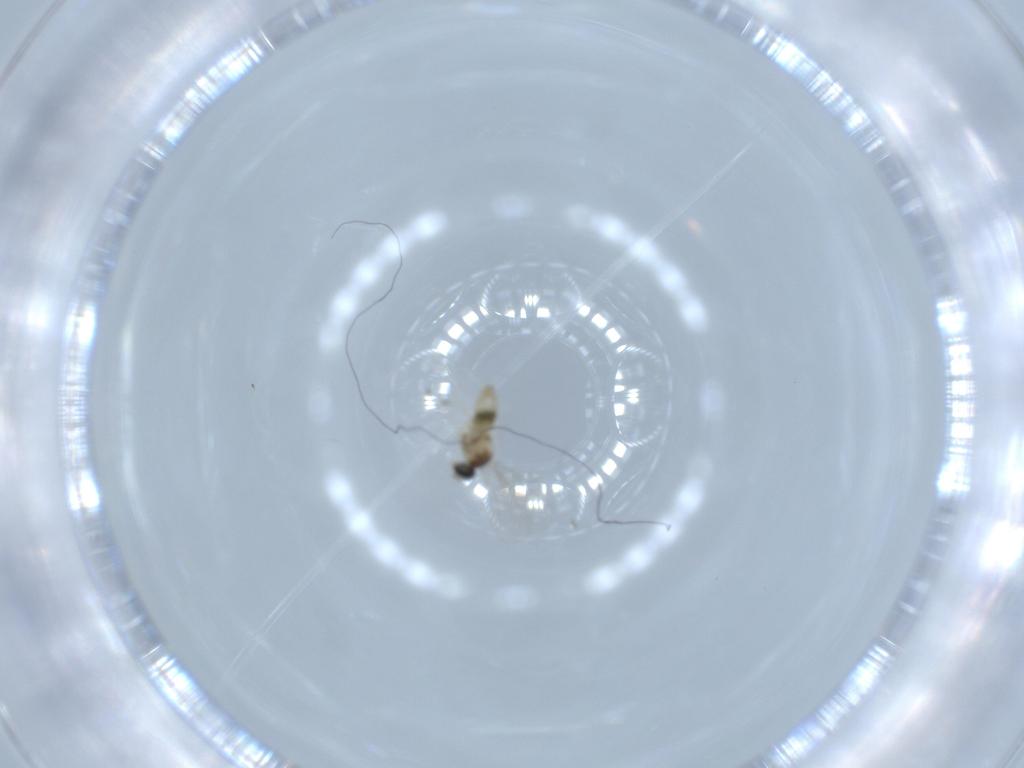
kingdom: Animalia
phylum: Arthropoda
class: Insecta
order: Diptera
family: Cecidomyiidae
